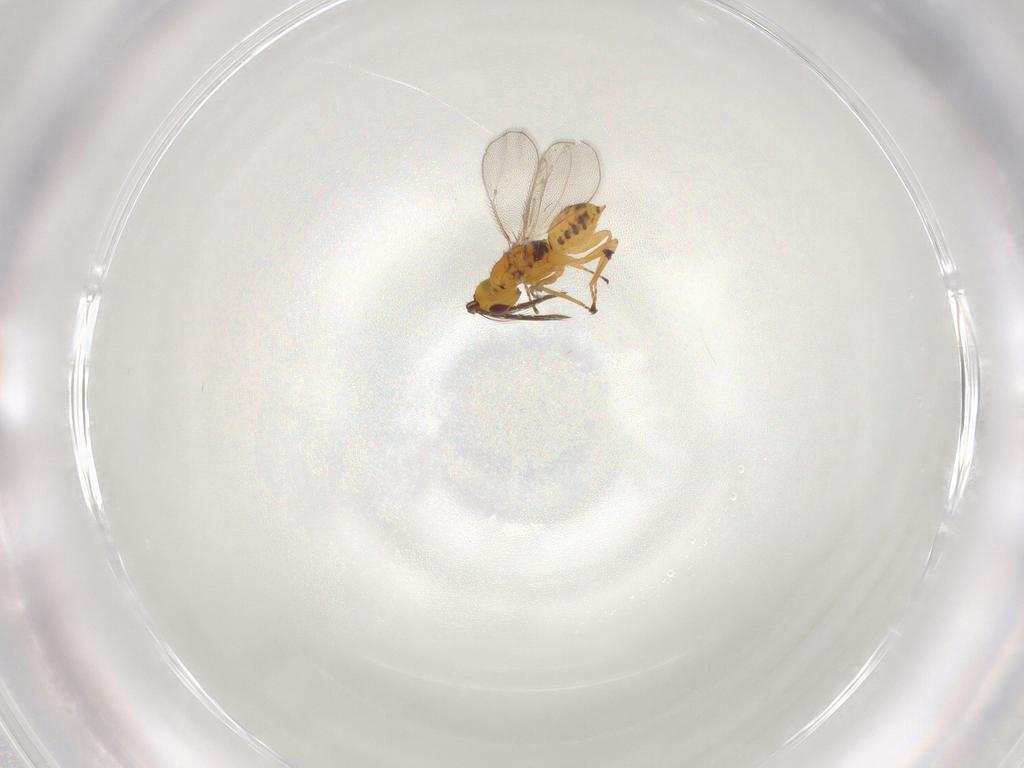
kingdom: Animalia
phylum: Arthropoda
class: Insecta
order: Hymenoptera
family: Eulophidae
